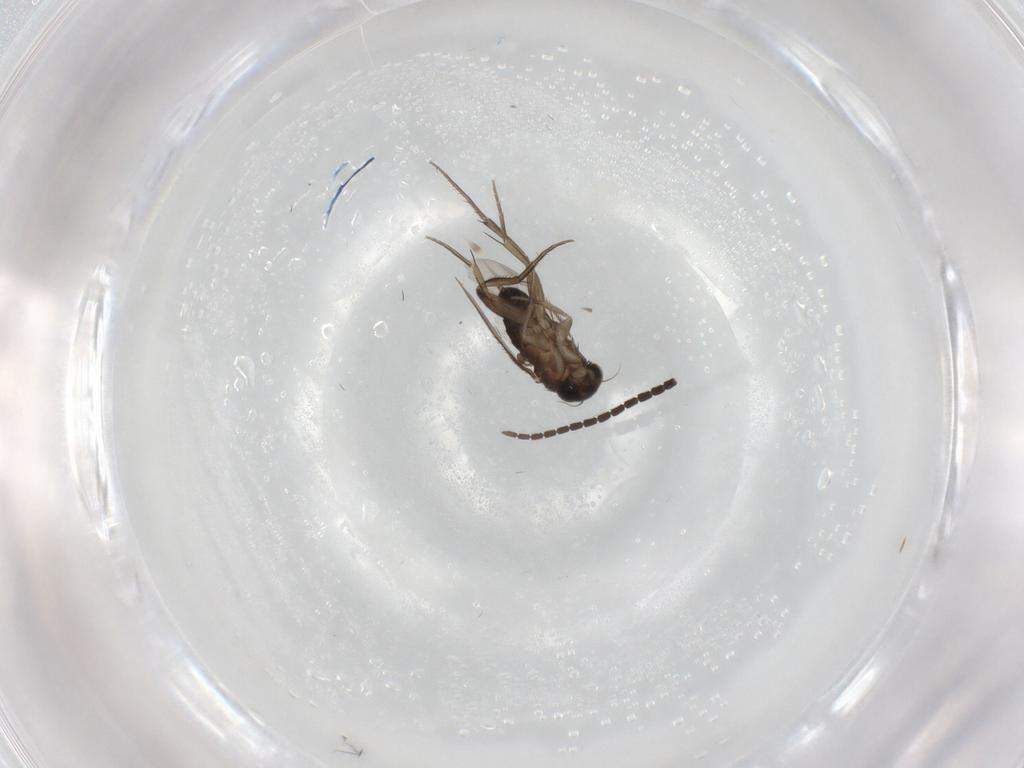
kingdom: Animalia
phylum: Arthropoda
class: Insecta
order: Diptera
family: Phoridae
